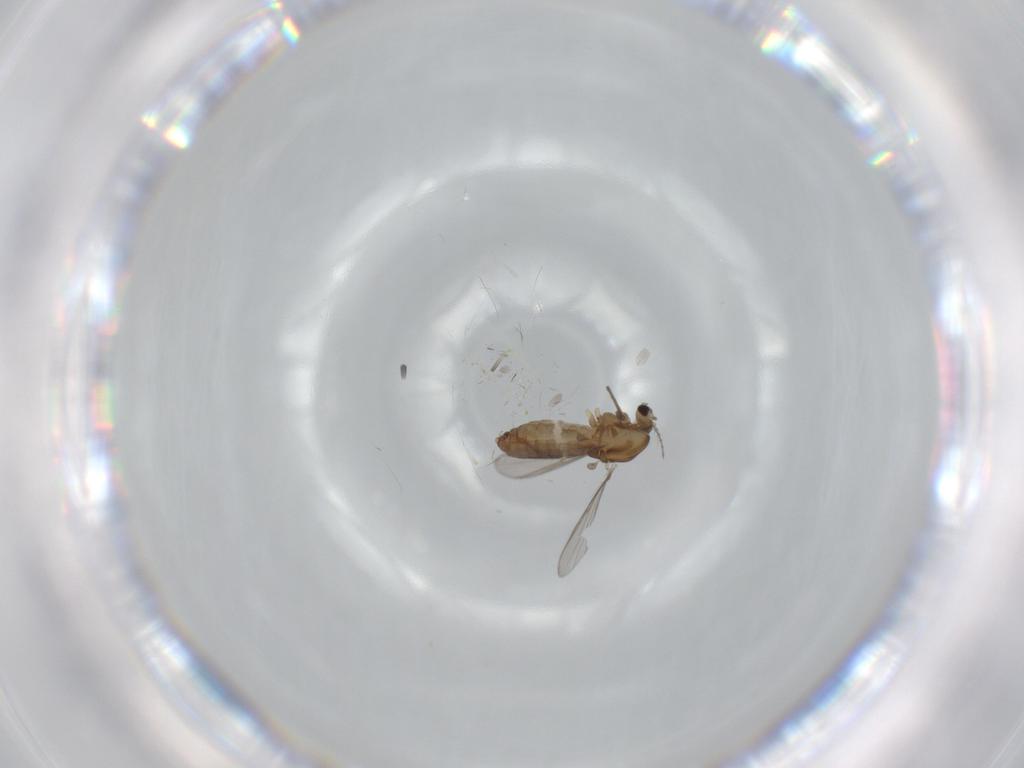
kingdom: Animalia
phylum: Arthropoda
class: Insecta
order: Diptera
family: Chironomidae
